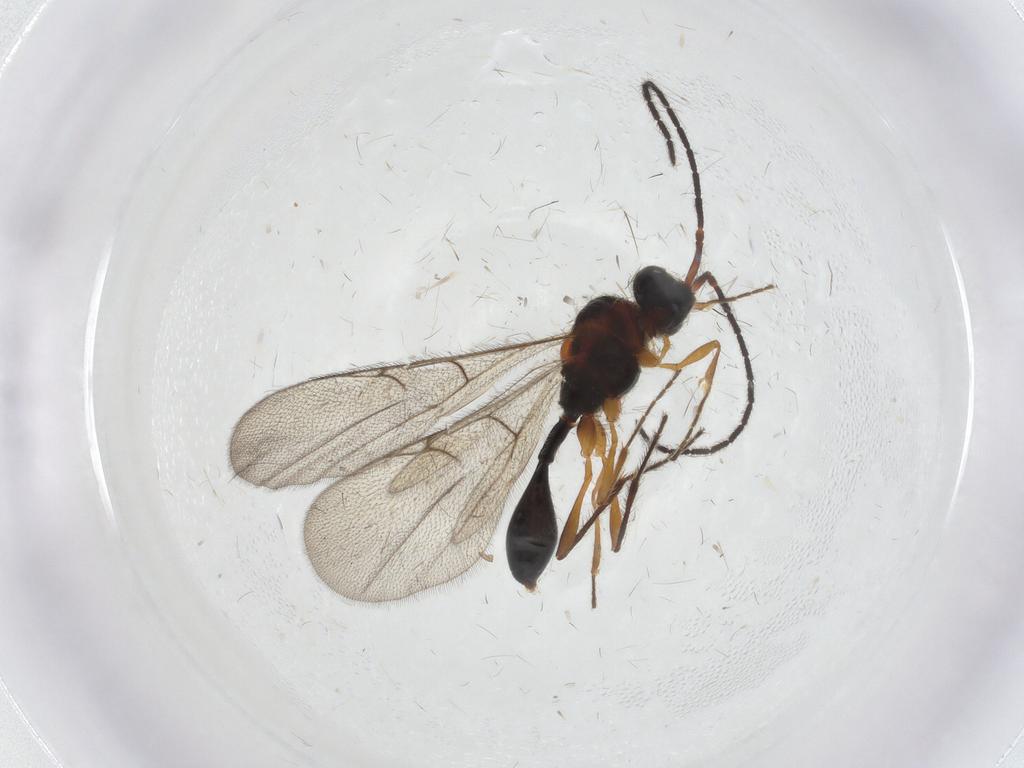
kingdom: Animalia
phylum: Arthropoda
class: Insecta
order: Hymenoptera
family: Diapriidae
